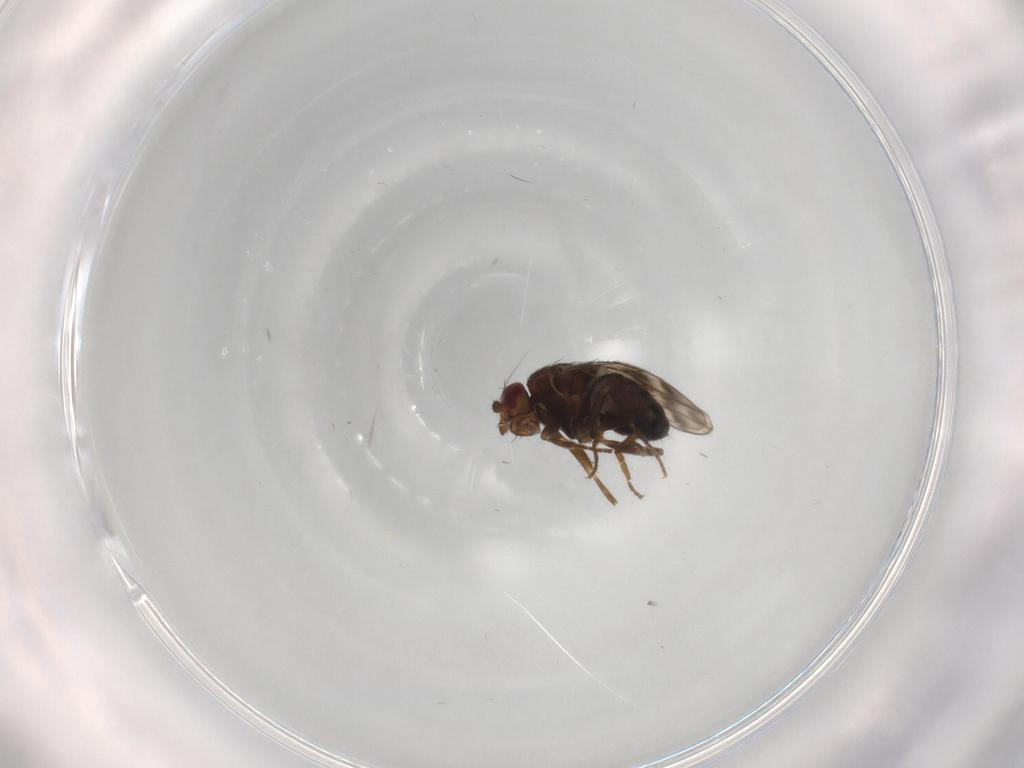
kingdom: Animalia
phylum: Arthropoda
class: Insecta
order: Diptera
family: Sphaeroceridae
